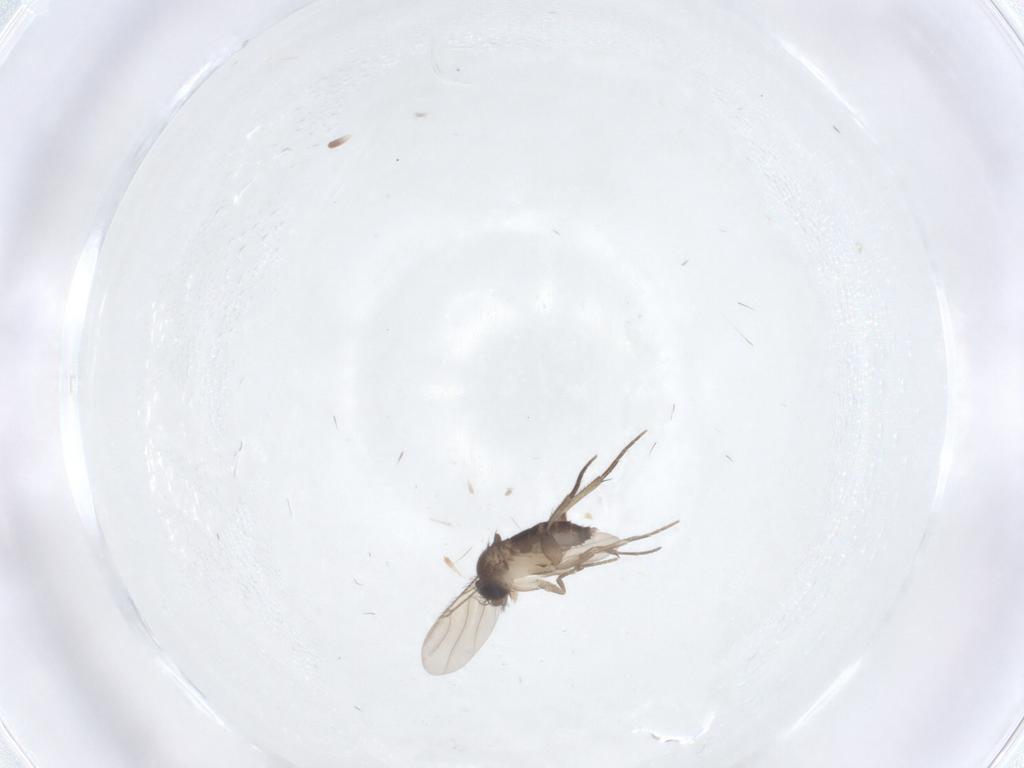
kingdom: Animalia
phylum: Arthropoda
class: Insecta
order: Diptera
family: Phoridae
